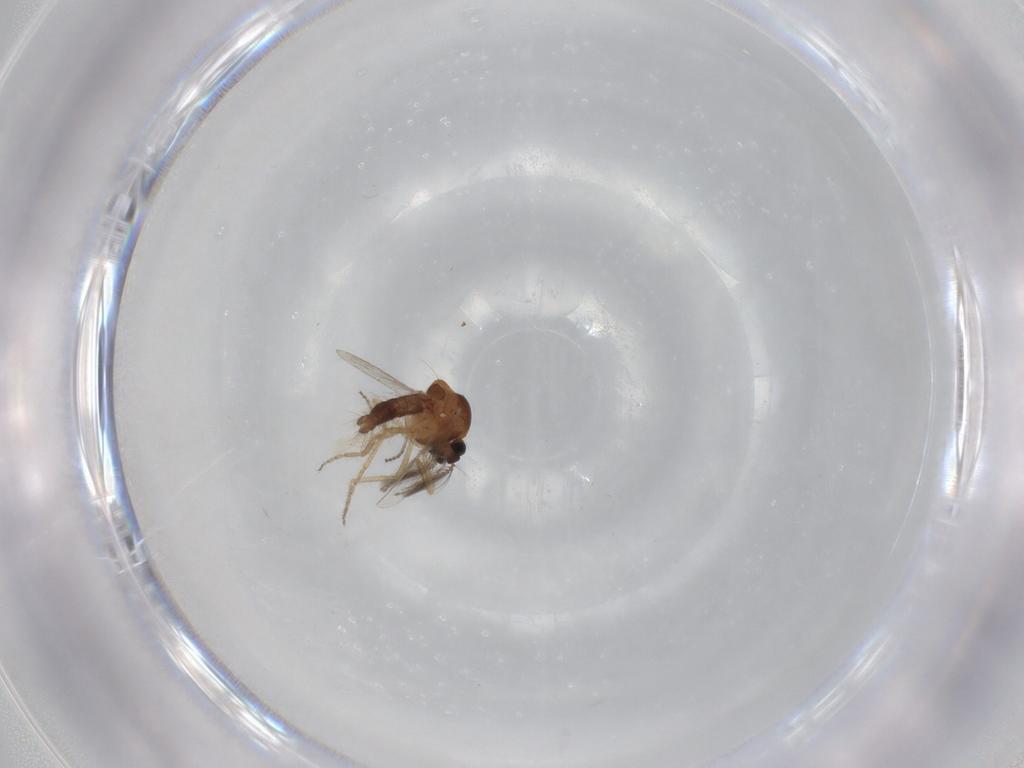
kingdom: Animalia
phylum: Arthropoda
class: Insecta
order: Diptera
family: Ceratopogonidae
